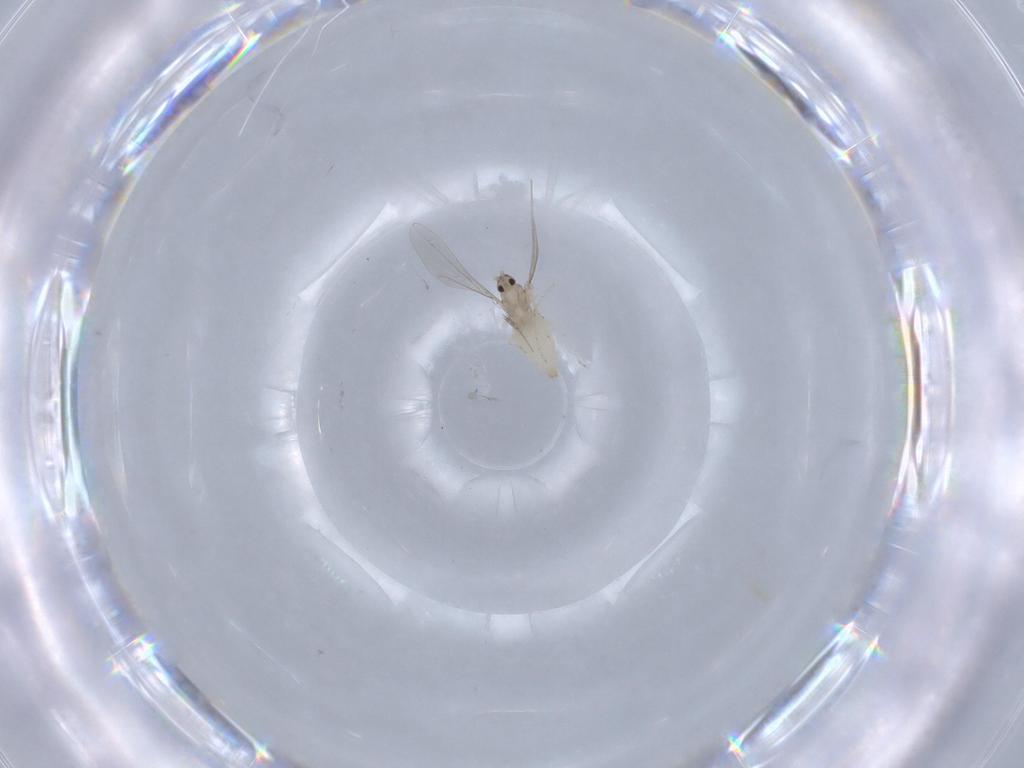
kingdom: Animalia
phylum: Arthropoda
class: Insecta
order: Diptera
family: Cecidomyiidae
